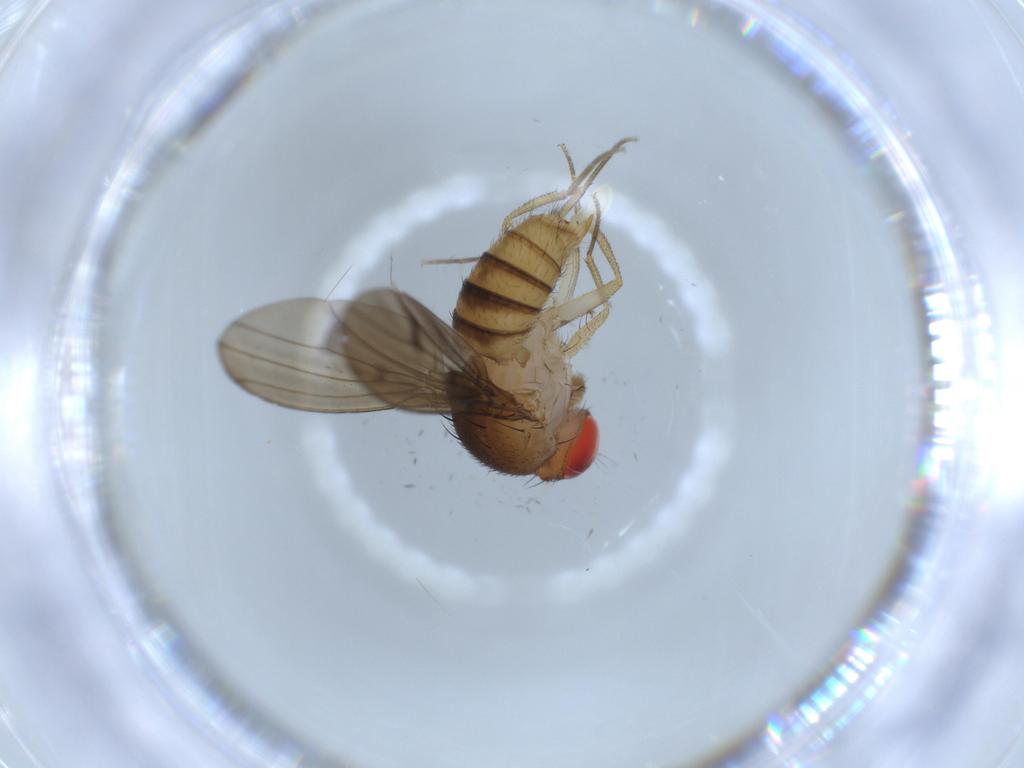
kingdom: Animalia
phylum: Arthropoda
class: Insecta
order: Diptera
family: Drosophilidae
